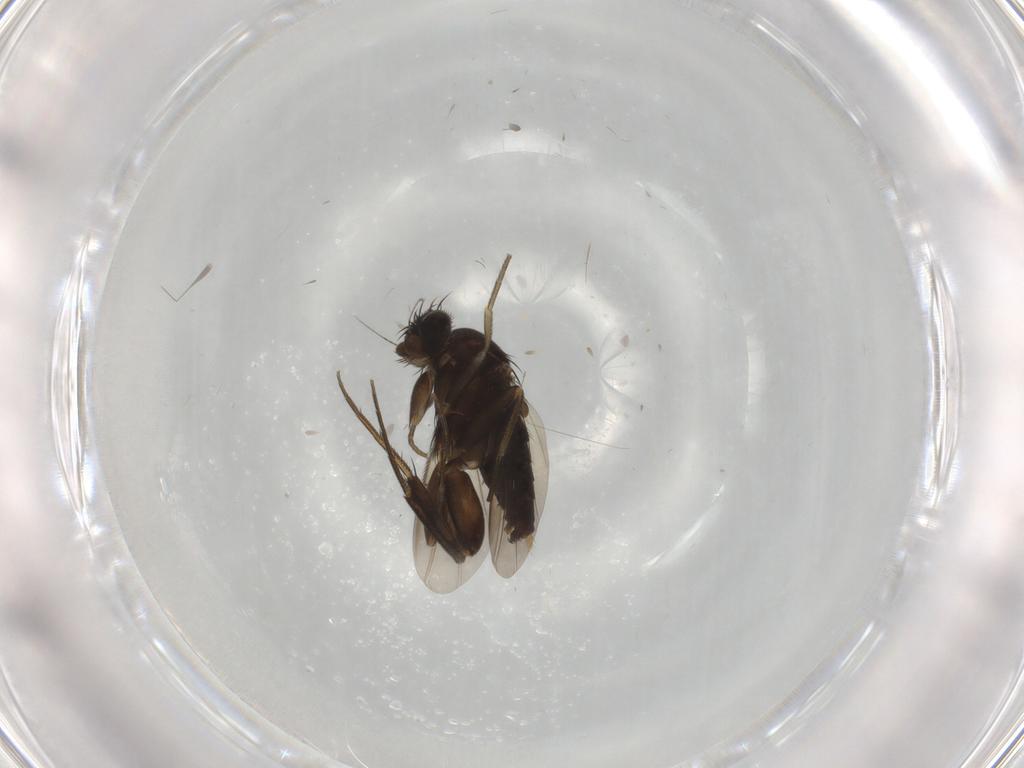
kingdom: Animalia
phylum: Arthropoda
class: Insecta
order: Diptera
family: Phoridae
